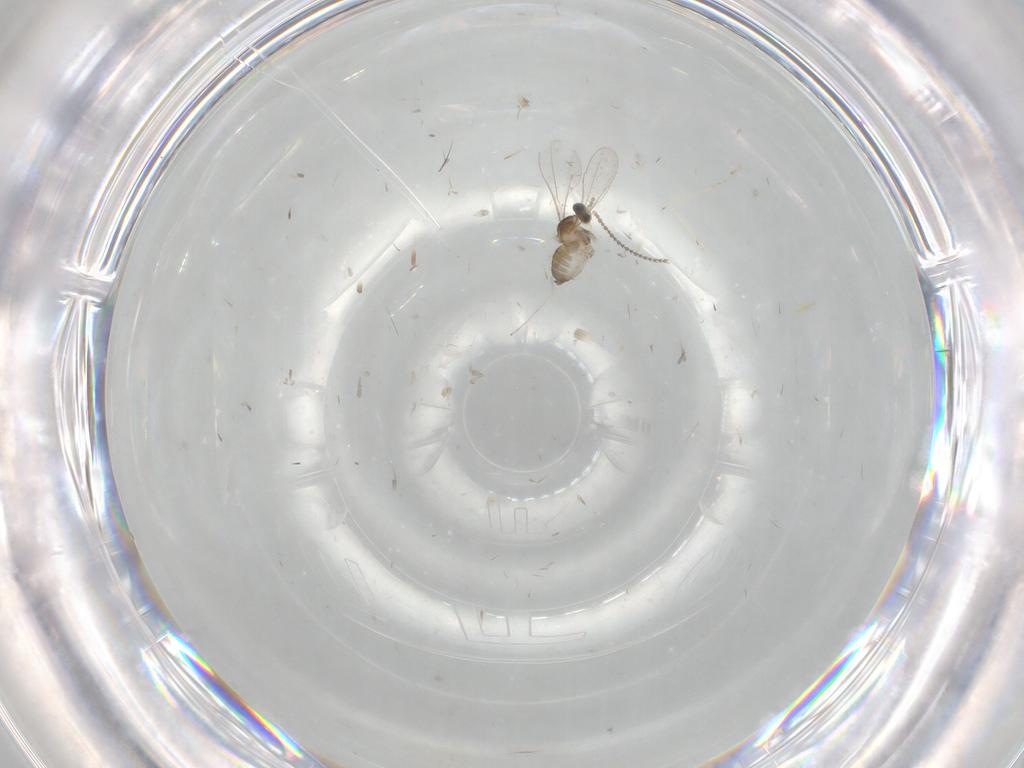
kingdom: Animalia
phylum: Arthropoda
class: Insecta
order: Diptera
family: Cecidomyiidae
